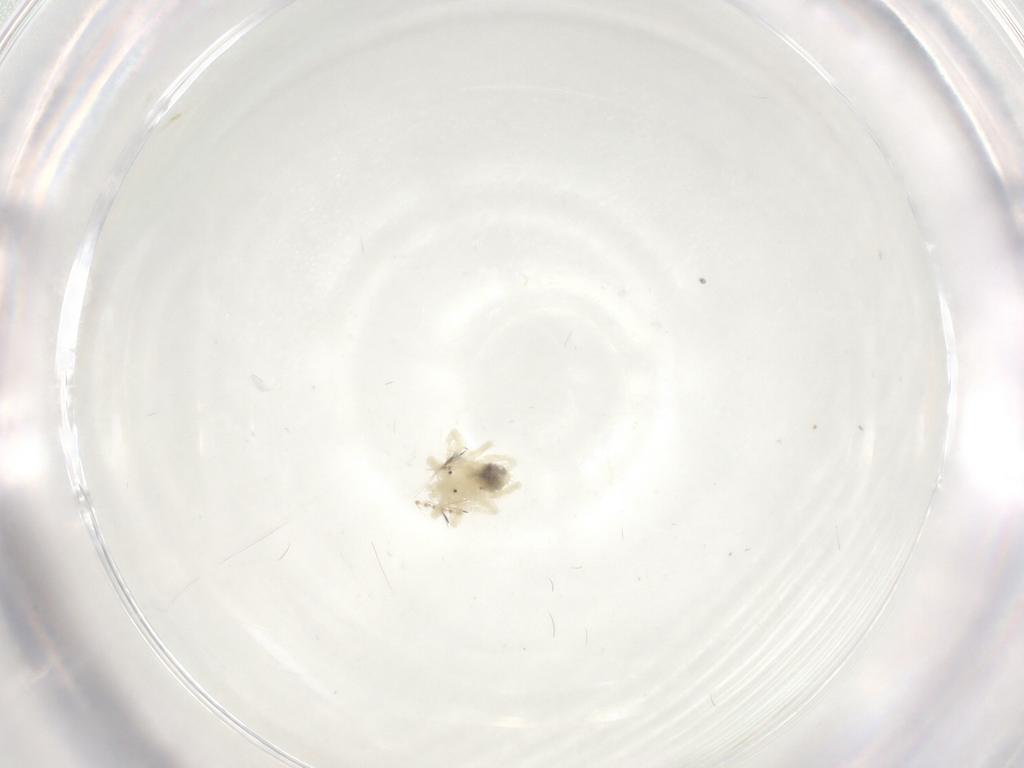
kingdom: Animalia
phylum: Arthropoda
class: Arachnida
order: Trombidiformes
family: Anystidae
